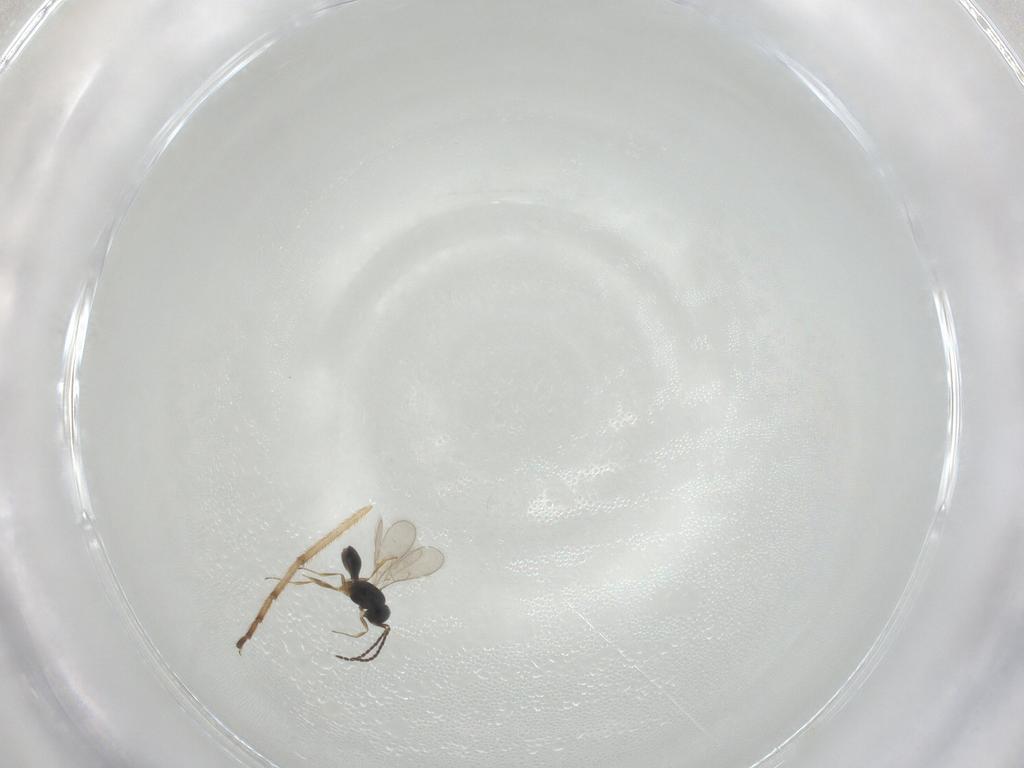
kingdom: Animalia
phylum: Arthropoda
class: Insecta
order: Hymenoptera
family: Scelionidae
